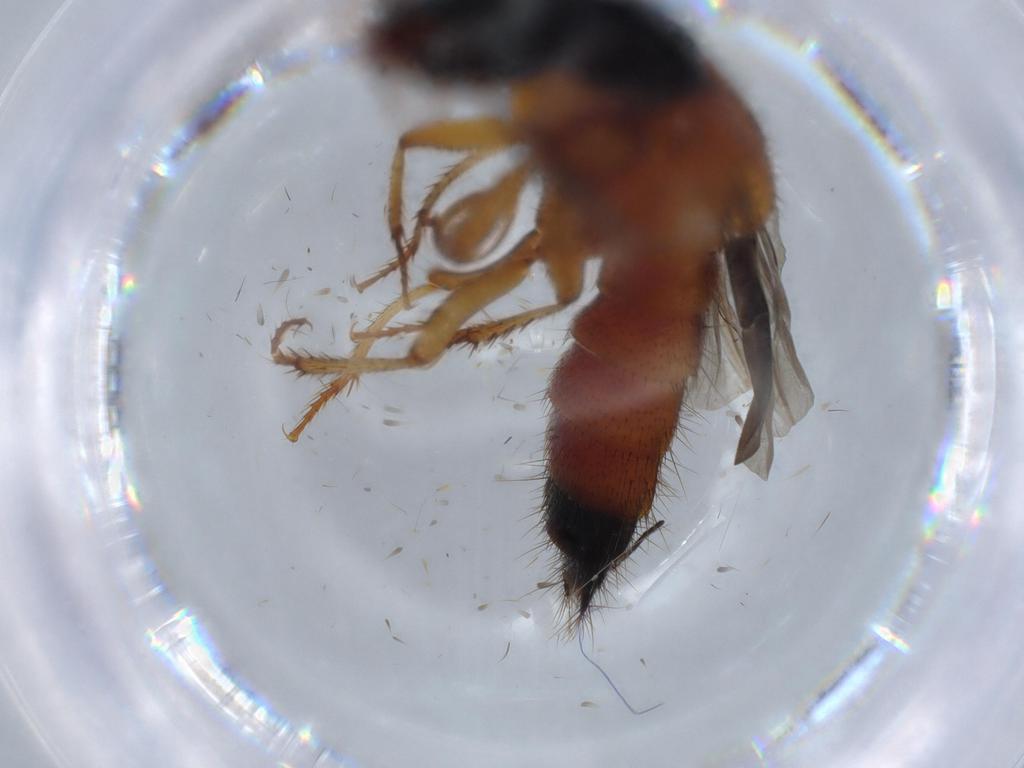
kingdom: Animalia
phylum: Arthropoda
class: Insecta
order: Coleoptera
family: Staphylinidae
